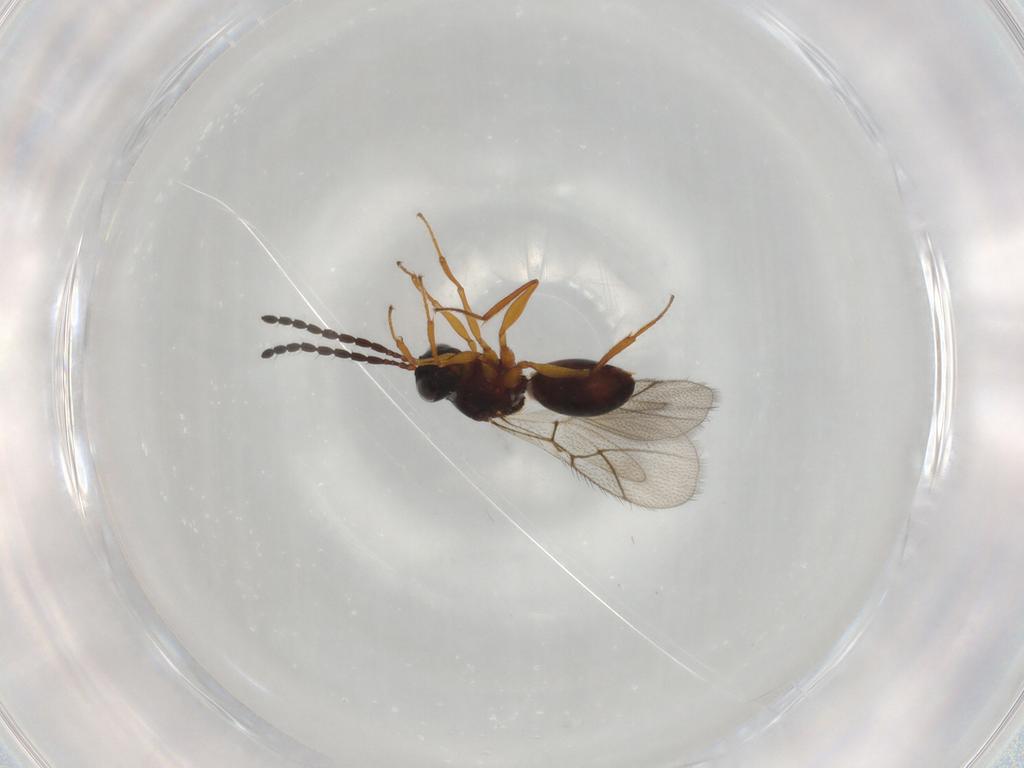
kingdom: Animalia
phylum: Arthropoda
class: Insecta
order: Hymenoptera
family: Figitidae
